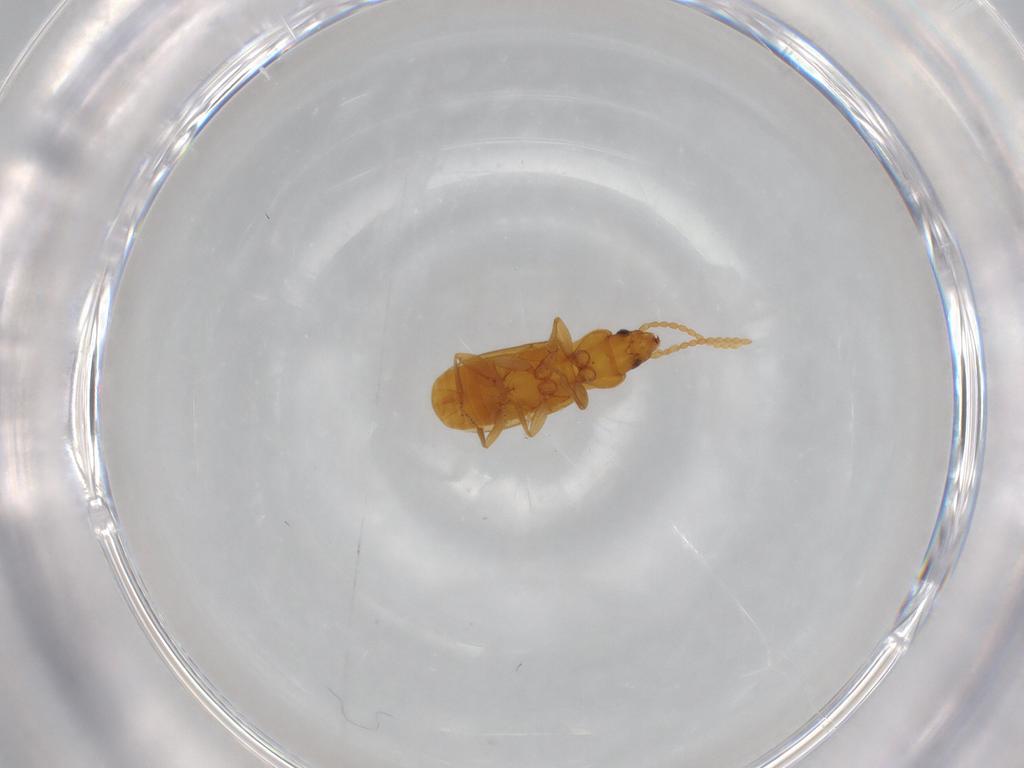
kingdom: Animalia
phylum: Arthropoda
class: Insecta
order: Coleoptera
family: Carabidae
